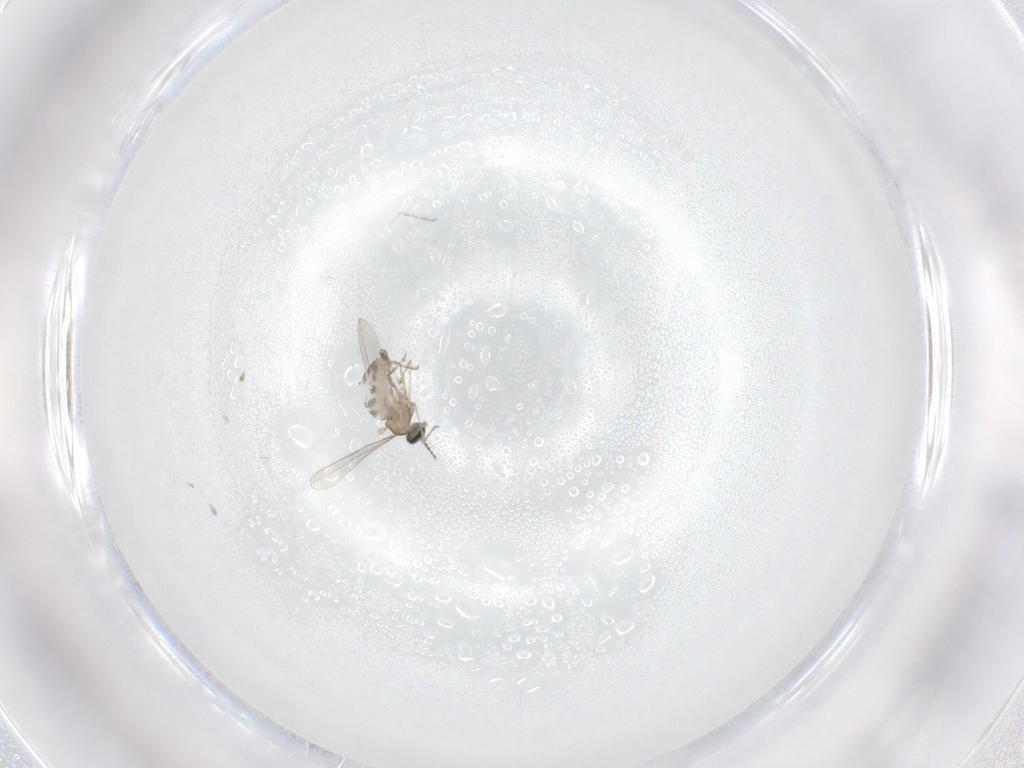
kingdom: Animalia
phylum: Arthropoda
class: Insecta
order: Diptera
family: Cecidomyiidae
